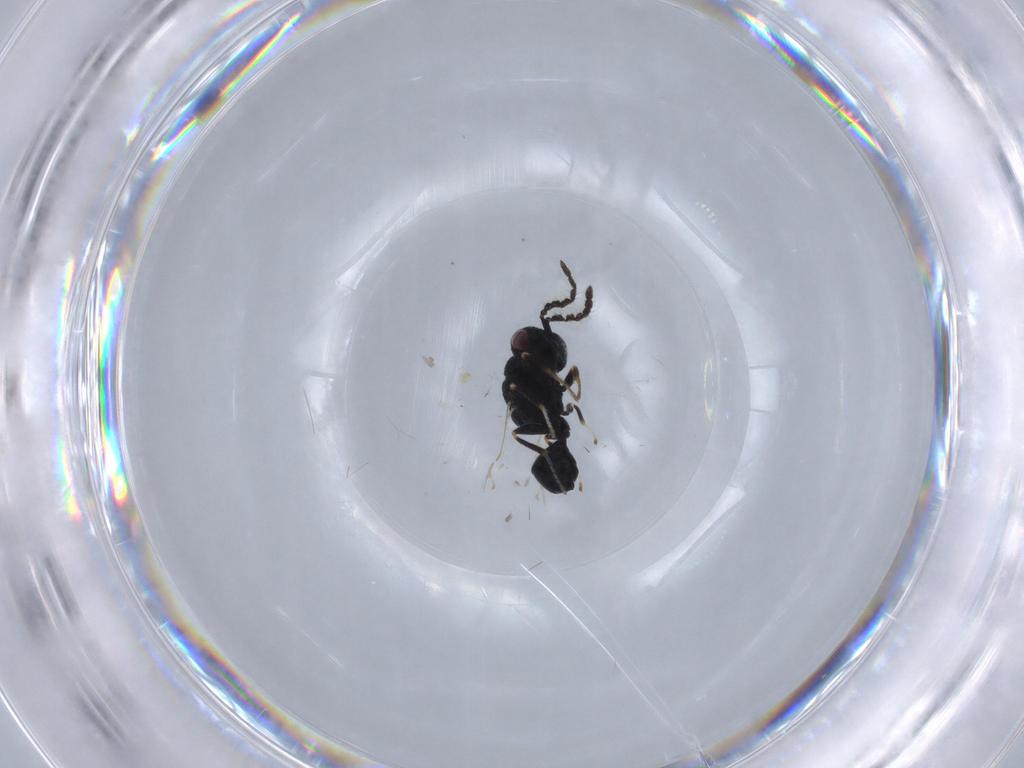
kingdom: Animalia
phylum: Arthropoda
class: Insecta
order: Hymenoptera
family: Eurytomidae
